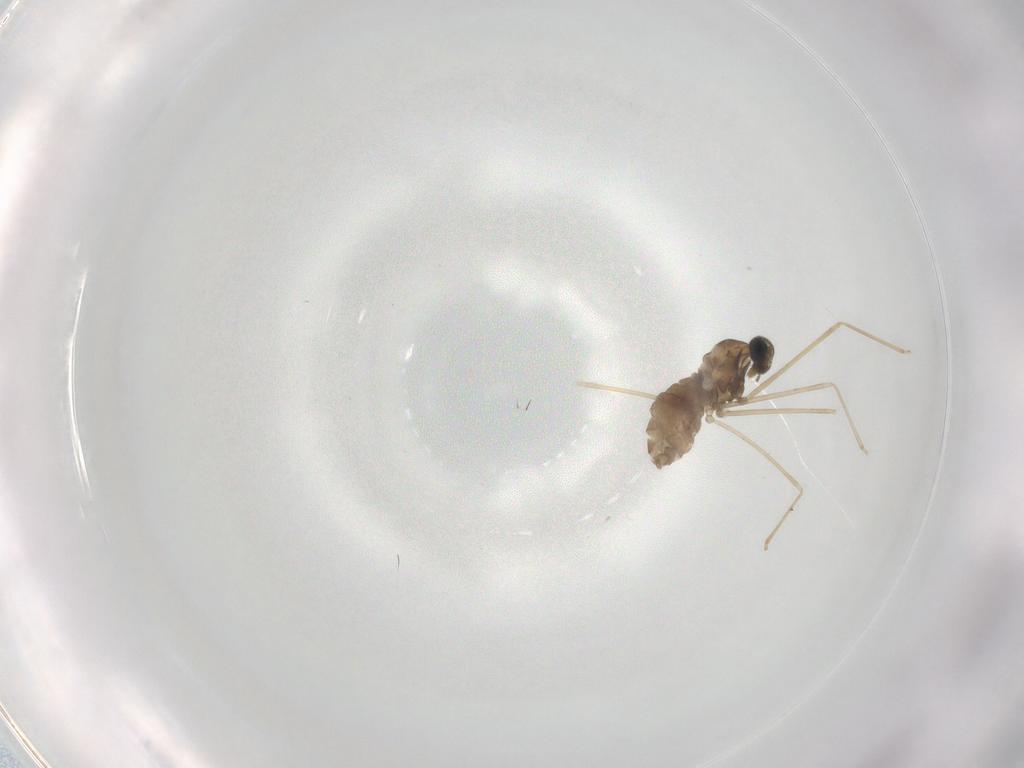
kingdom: Animalia
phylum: Arthropoda
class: Insecta
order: Diptera
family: Cecidomyiidae
